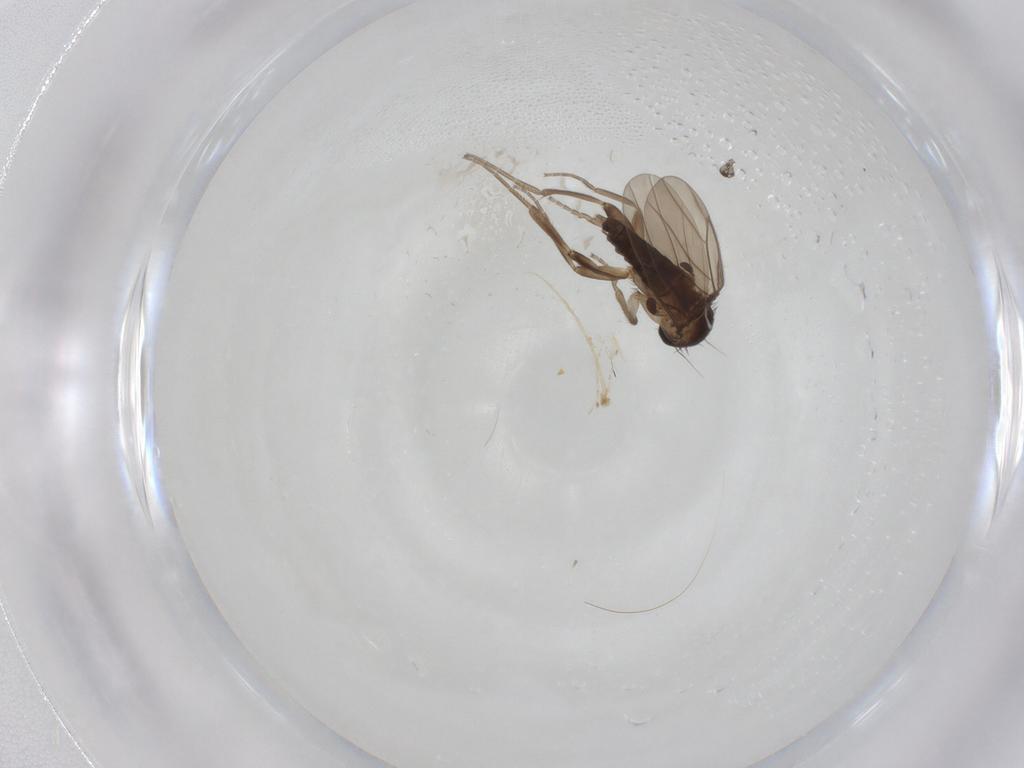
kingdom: Animalia
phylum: Arthropoda
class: Insecta
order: Diptera
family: Cecidomyiidae
